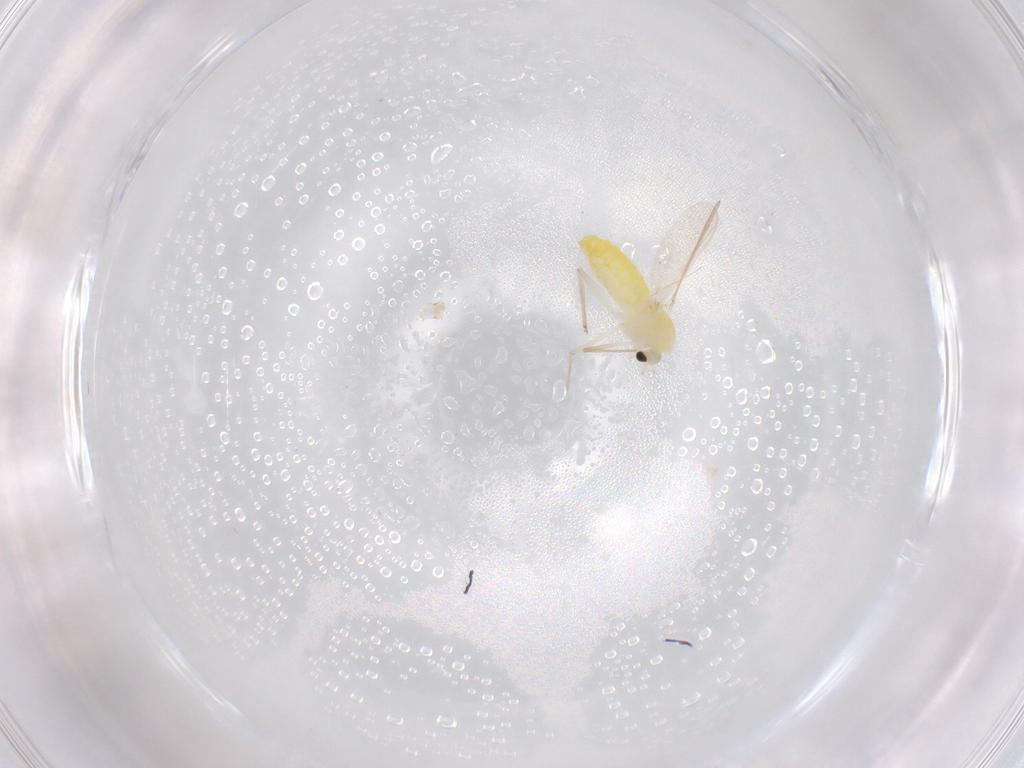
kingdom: Animalia
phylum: Arthropoda
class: Insecta
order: Diptera
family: Chironomidae
